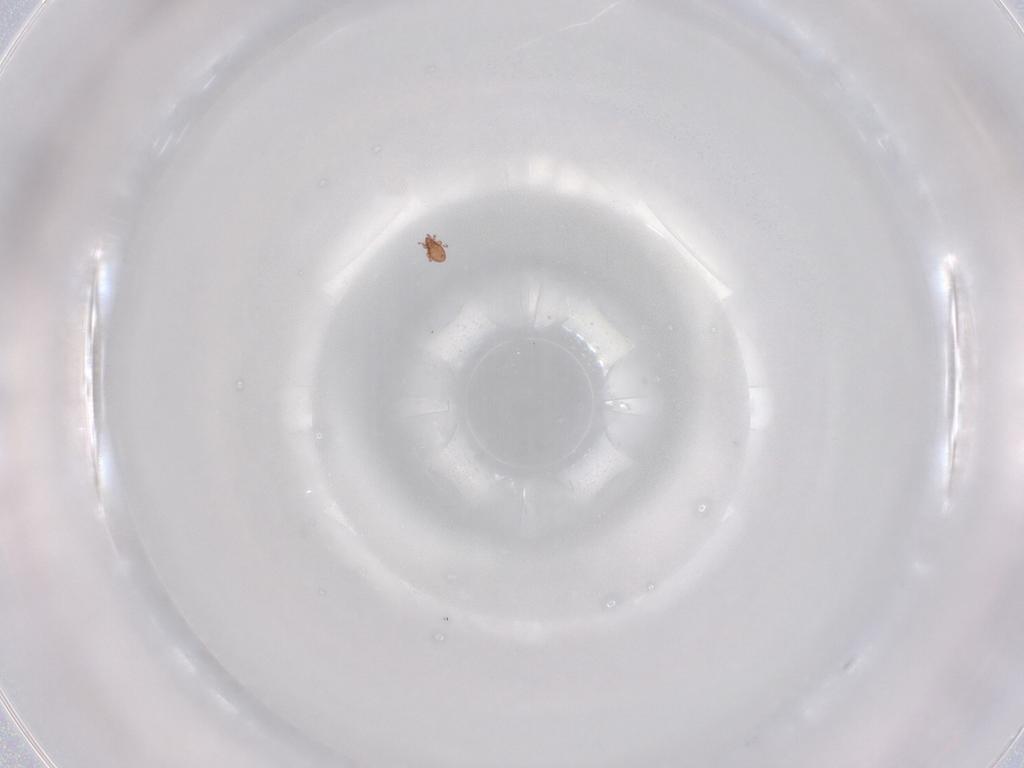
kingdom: Animalia
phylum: Arthropoda
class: Arachnida
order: Sarcoptiformes
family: Oppiidae
